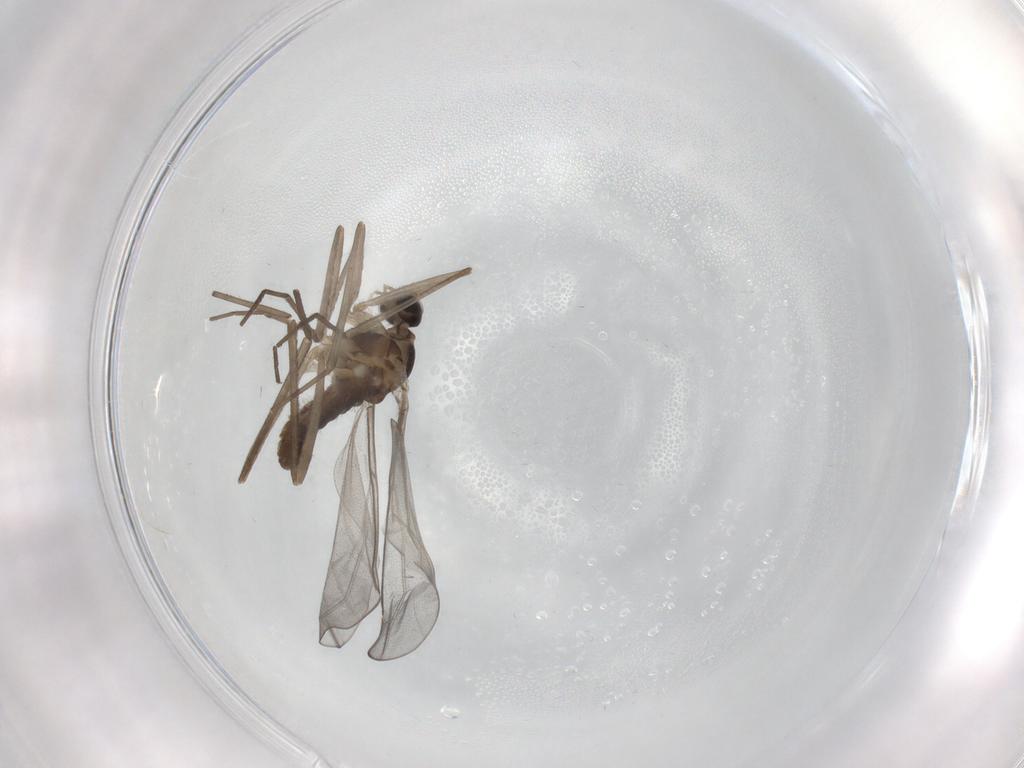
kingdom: Animalia
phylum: Arthropoda
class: Insecta
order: Diptera
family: Cecidomyiidae
